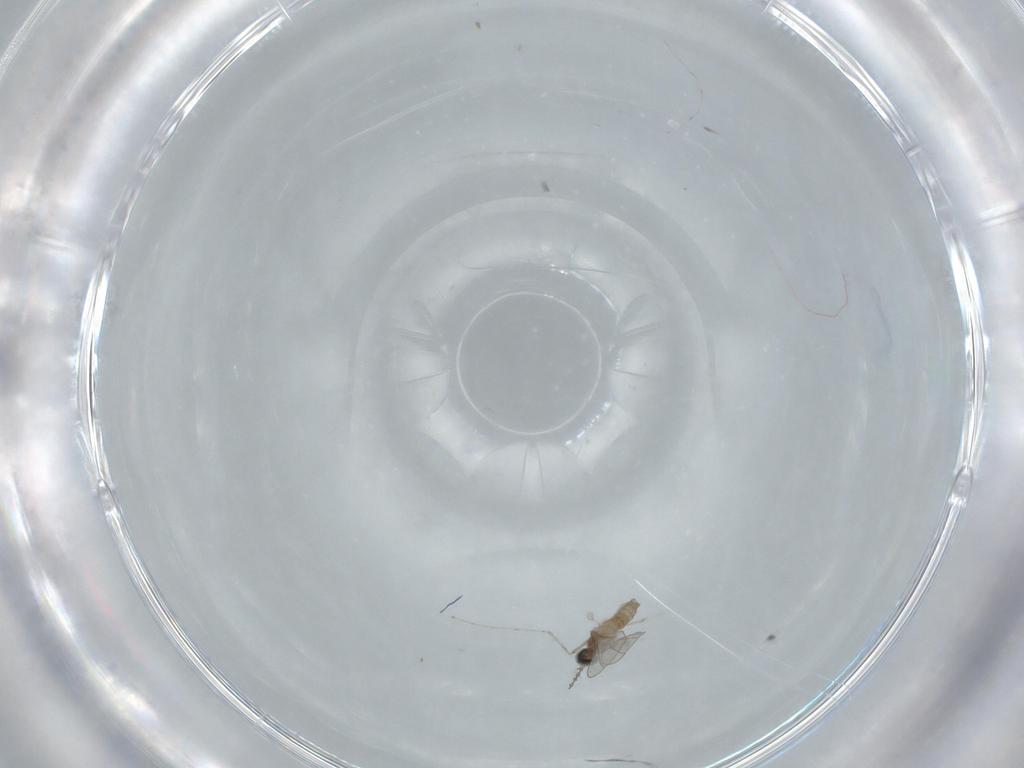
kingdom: Animalia
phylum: Arthropoda
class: Insecta
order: Diptera
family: Cecidomyiidae
